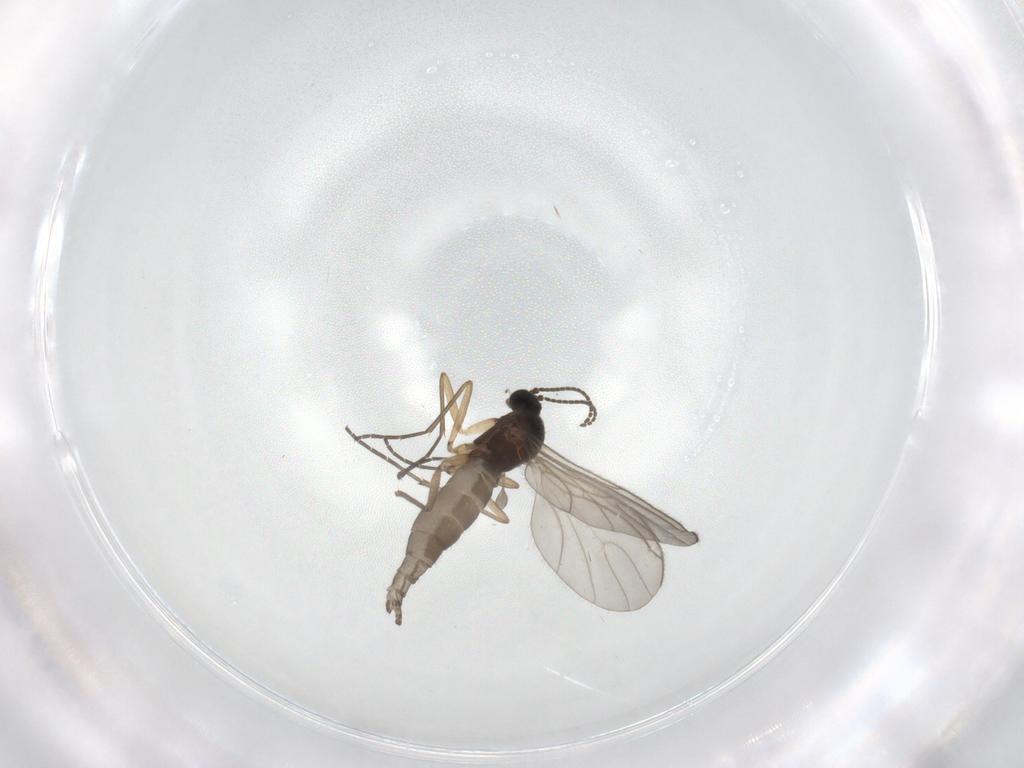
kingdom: Animalia
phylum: Arthropoda
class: Insecta
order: Diptera
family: Sciaridae
